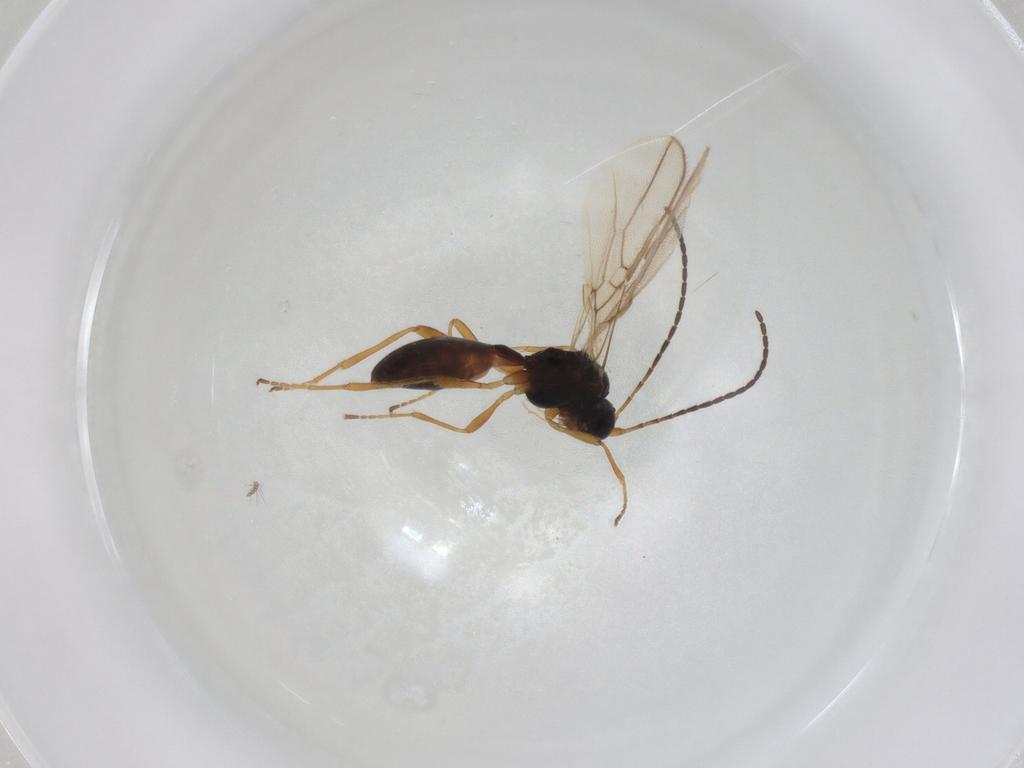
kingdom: Animalia
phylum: Arthropoda
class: Insecta
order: Hymenoptera
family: Braconidae
